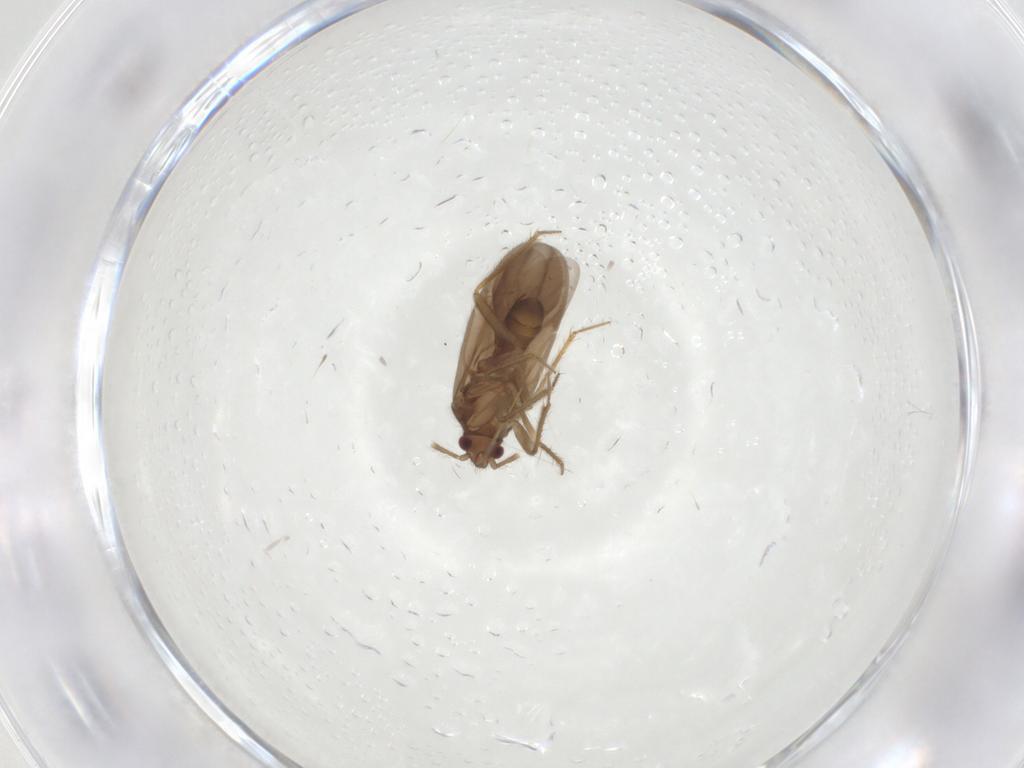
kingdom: Animalia
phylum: Arthropoda
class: Insecta
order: Hemiptera
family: Ceratocombidae
